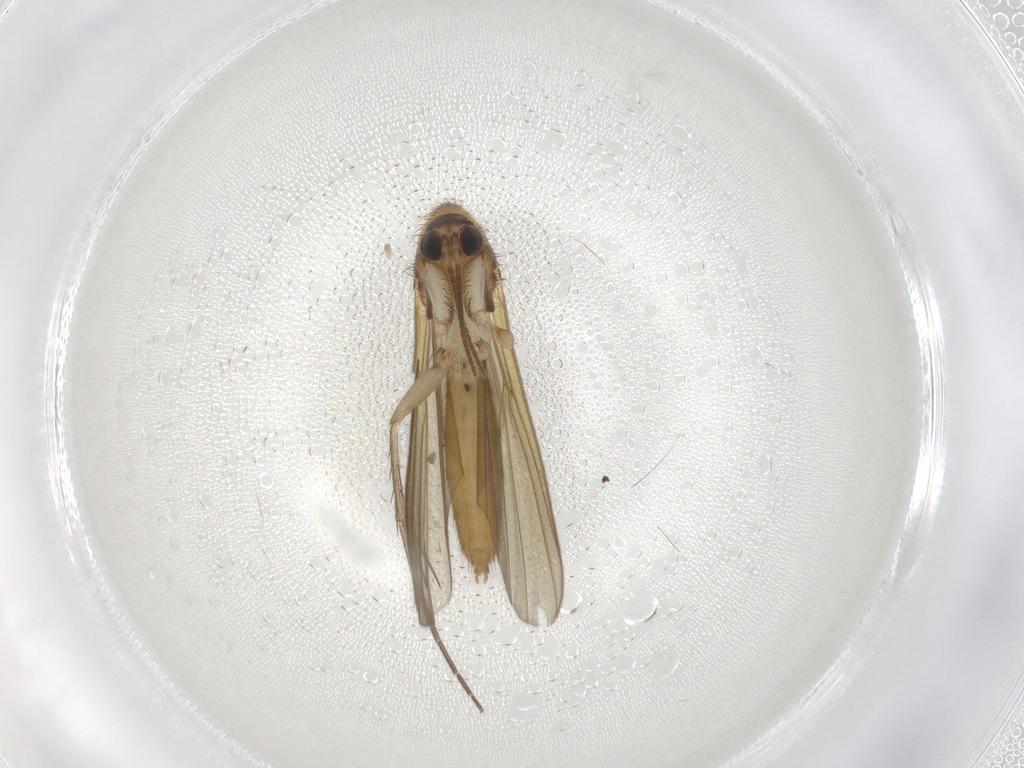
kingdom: Animalia
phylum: Arthropoda
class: Insecta
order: Diptera
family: Mycetophilidae
